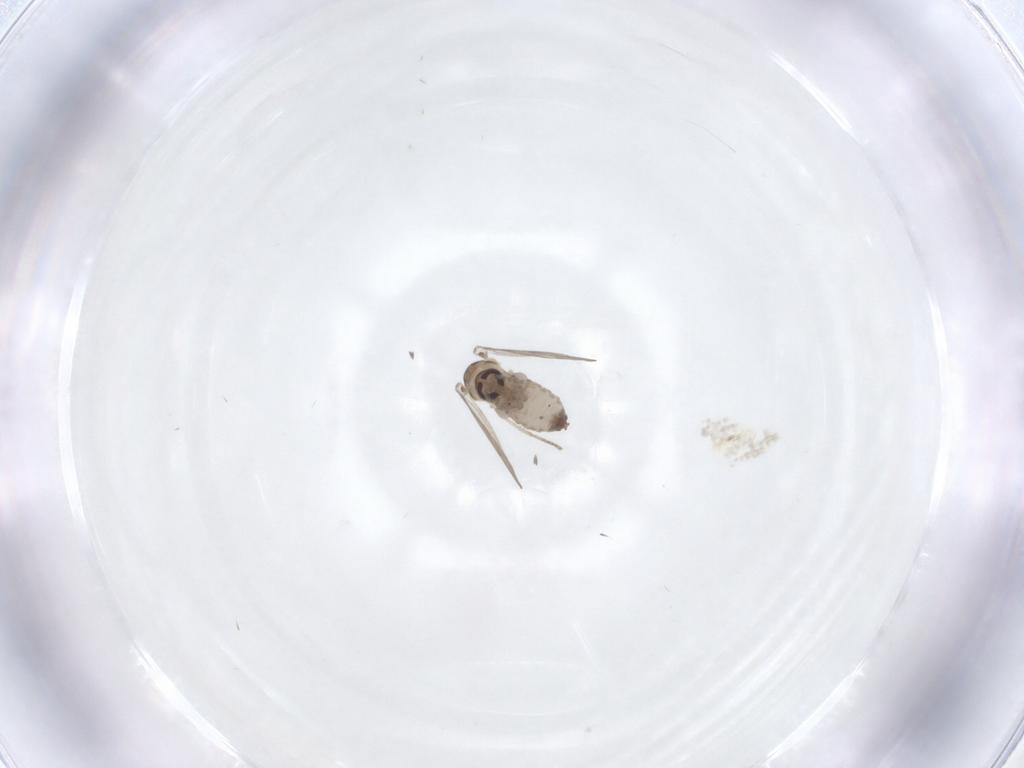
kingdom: Animalia
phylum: Arthropoda
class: Insecta
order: Diptera
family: Psychodidae
